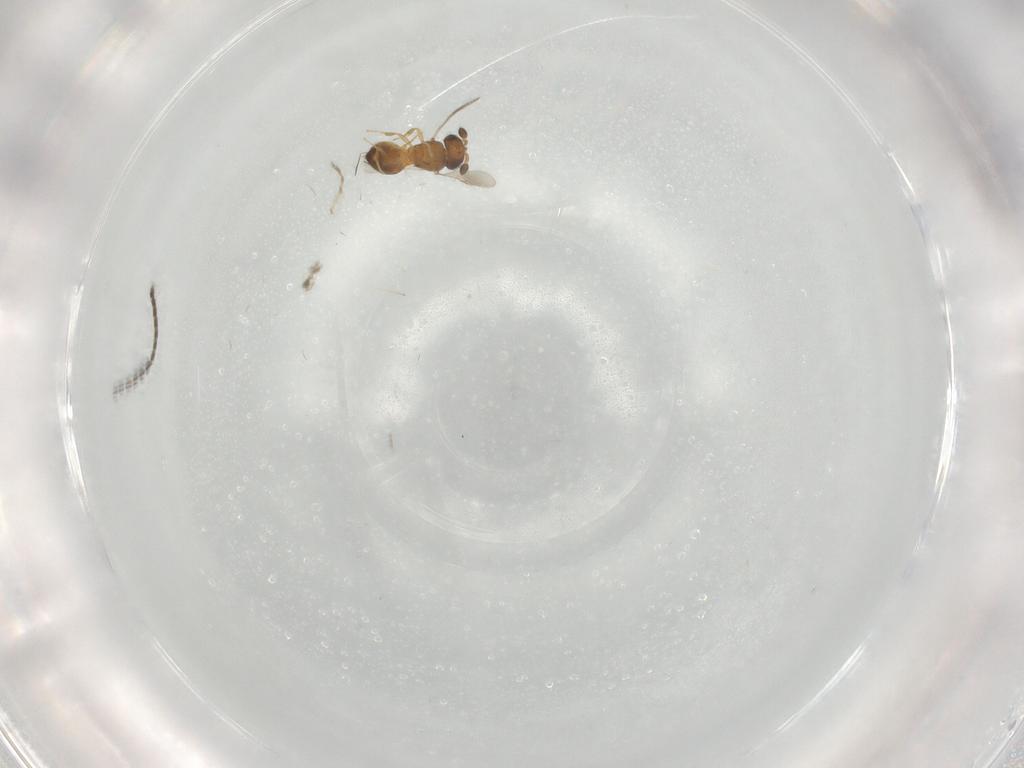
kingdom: Animalia
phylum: Arthropoda
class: Insecta
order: Hymenoptera
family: Scelionidae
